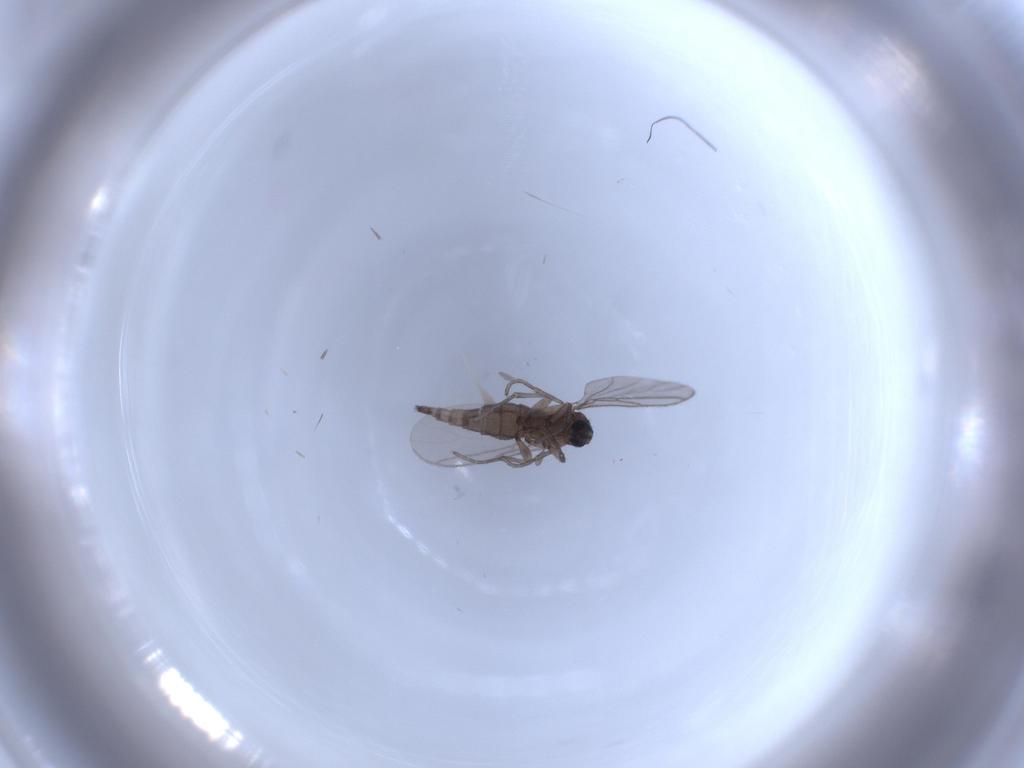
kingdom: Animalia
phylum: Arthropoda
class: Insecta
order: Diptera
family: Sciaridae
